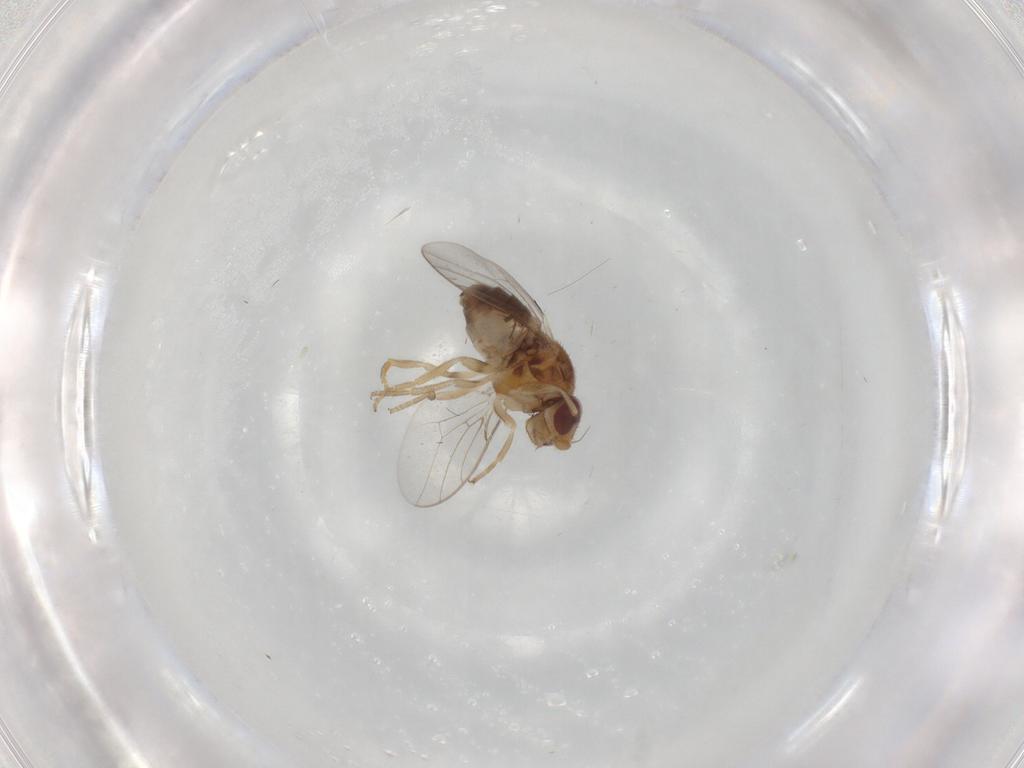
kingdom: Animalia
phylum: Arthropoda
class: Insecta
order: Diptera
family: Chloropidae
